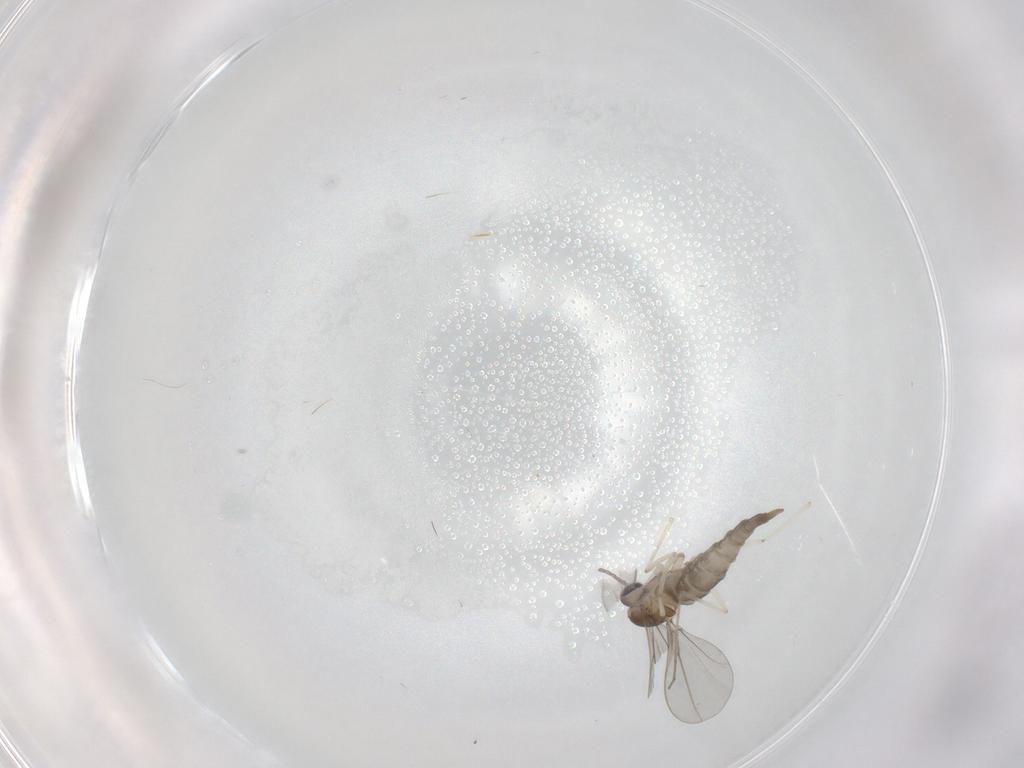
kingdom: Animalia
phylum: Arthropoda
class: Insecta
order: Diptera
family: Cecidomyiidae
